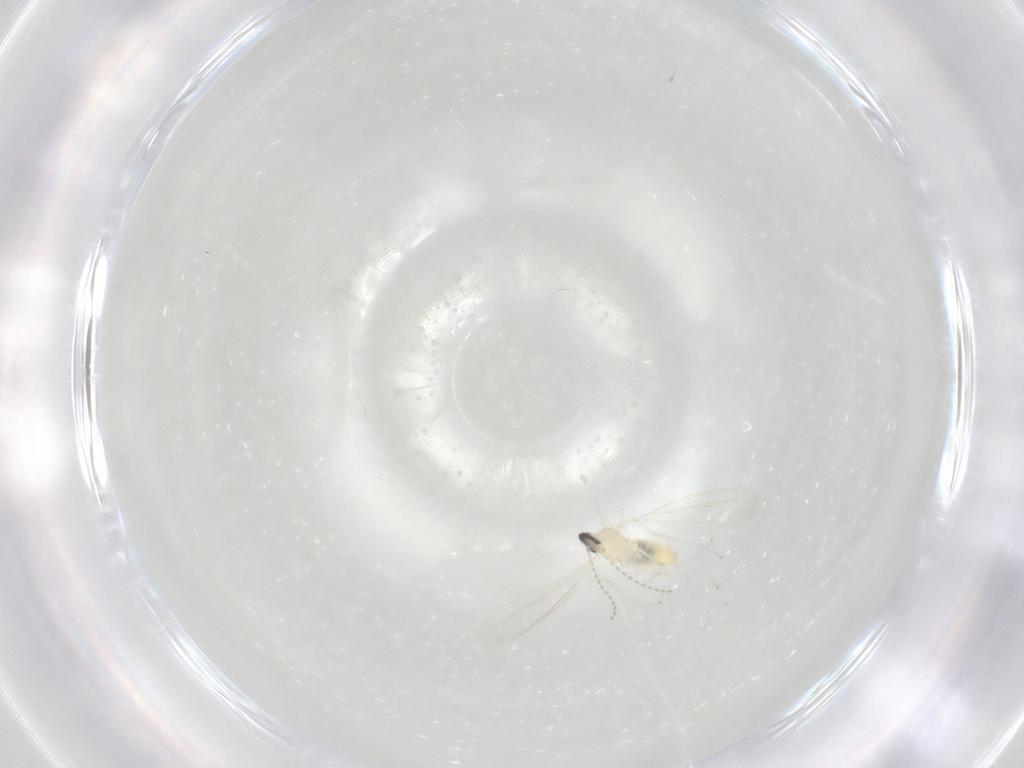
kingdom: Animalia
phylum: Arthropoda
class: Insecta
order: Diptera
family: Cecidomyiidae
